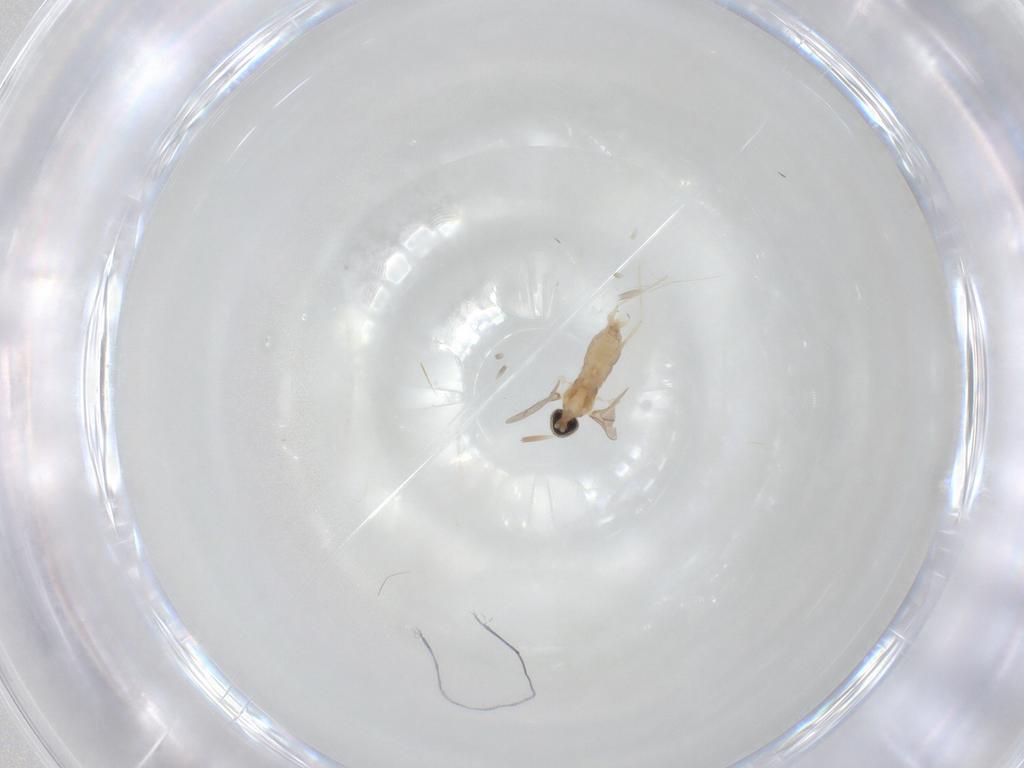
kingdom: Animalia
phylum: Arthropoda
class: Insecta
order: Diptera
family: Cecidomyiidae
